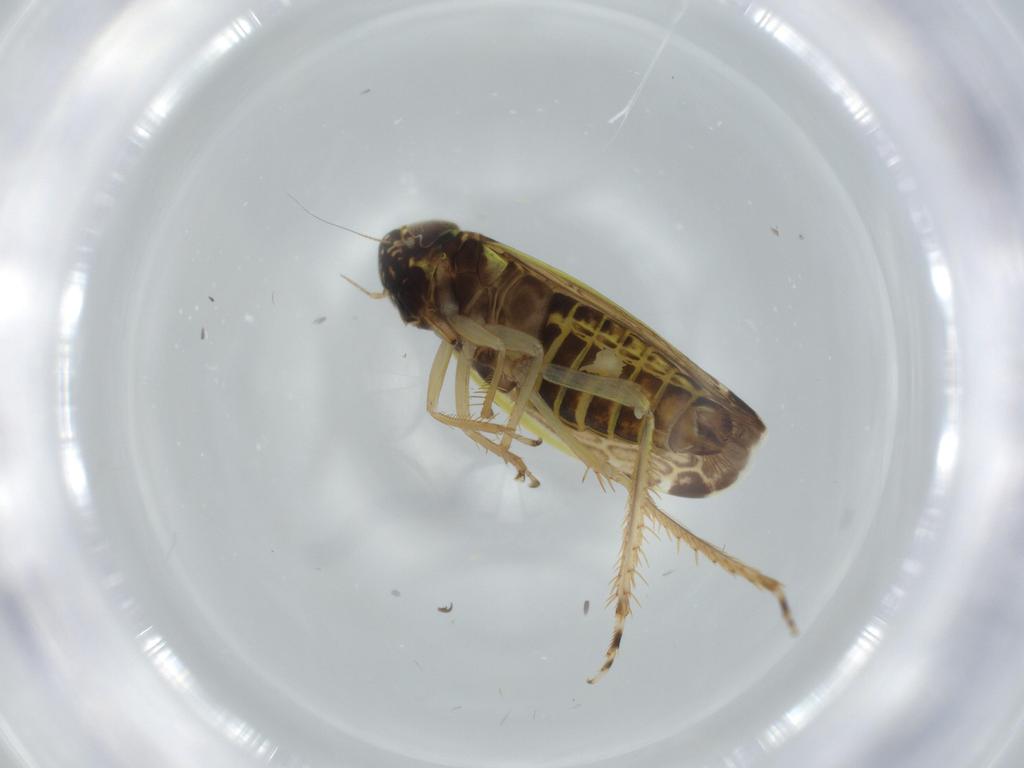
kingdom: Animalia
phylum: Arthropoda
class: Insecta
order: Hemiptera
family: Cicadellidae
